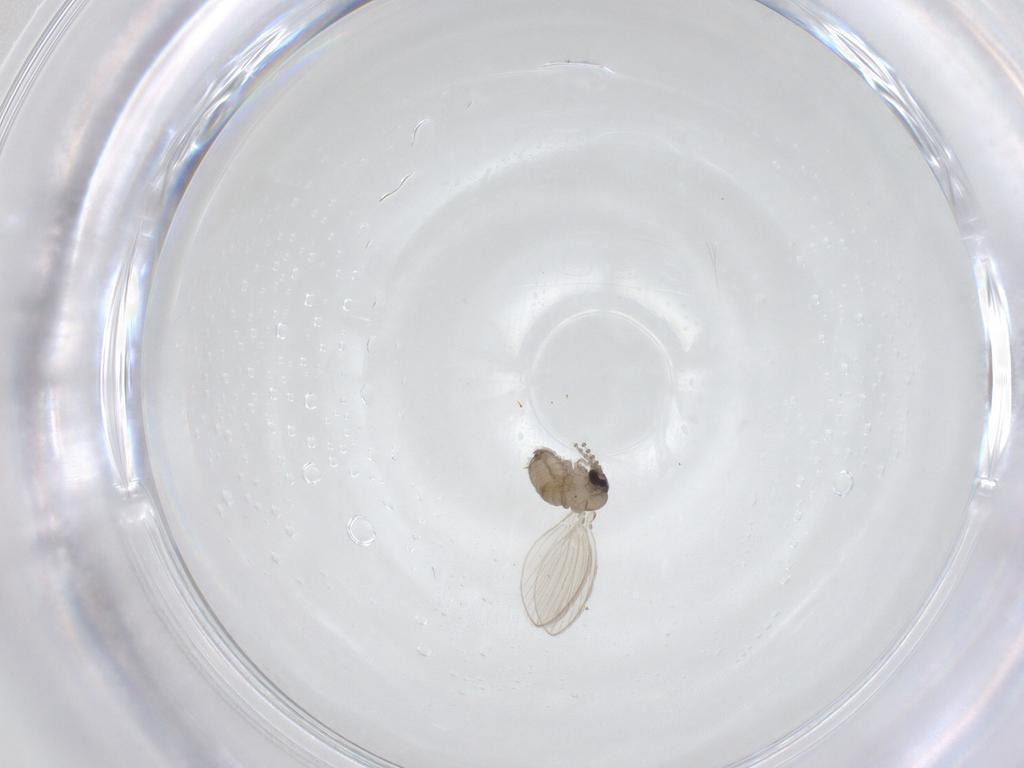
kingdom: Animalia
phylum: Arthropoda
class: Insecta
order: Diptera
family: Psychodidae
